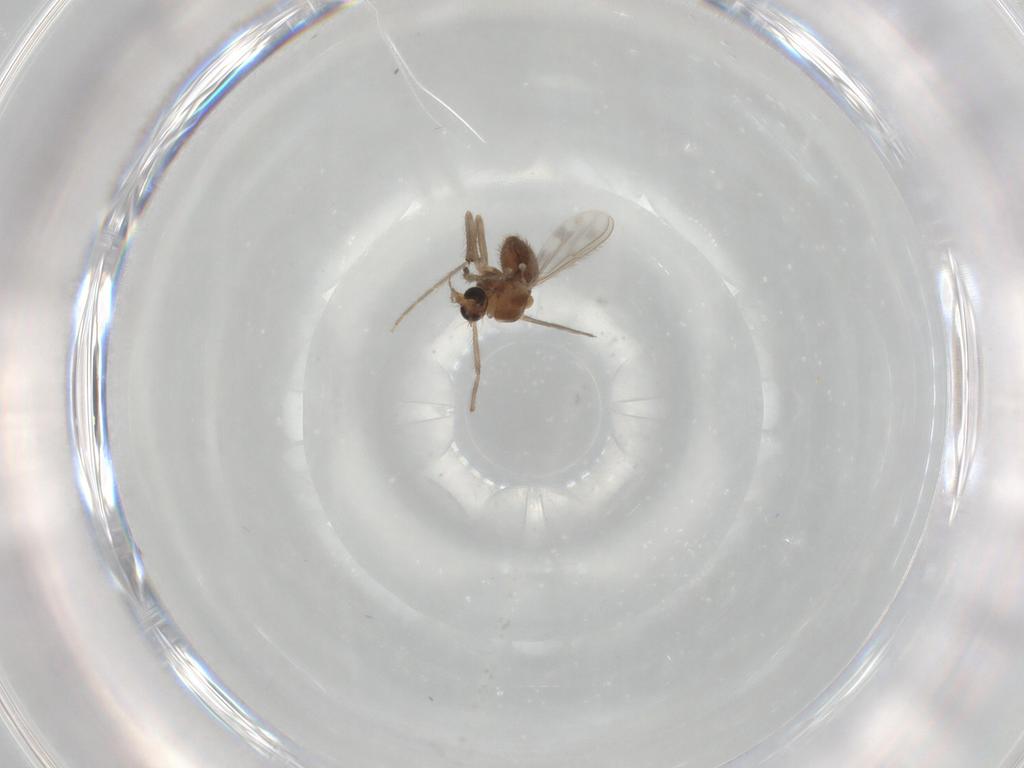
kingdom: Animalia
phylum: Arthropoda
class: Insecta
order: Diptera
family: Chironomidae
